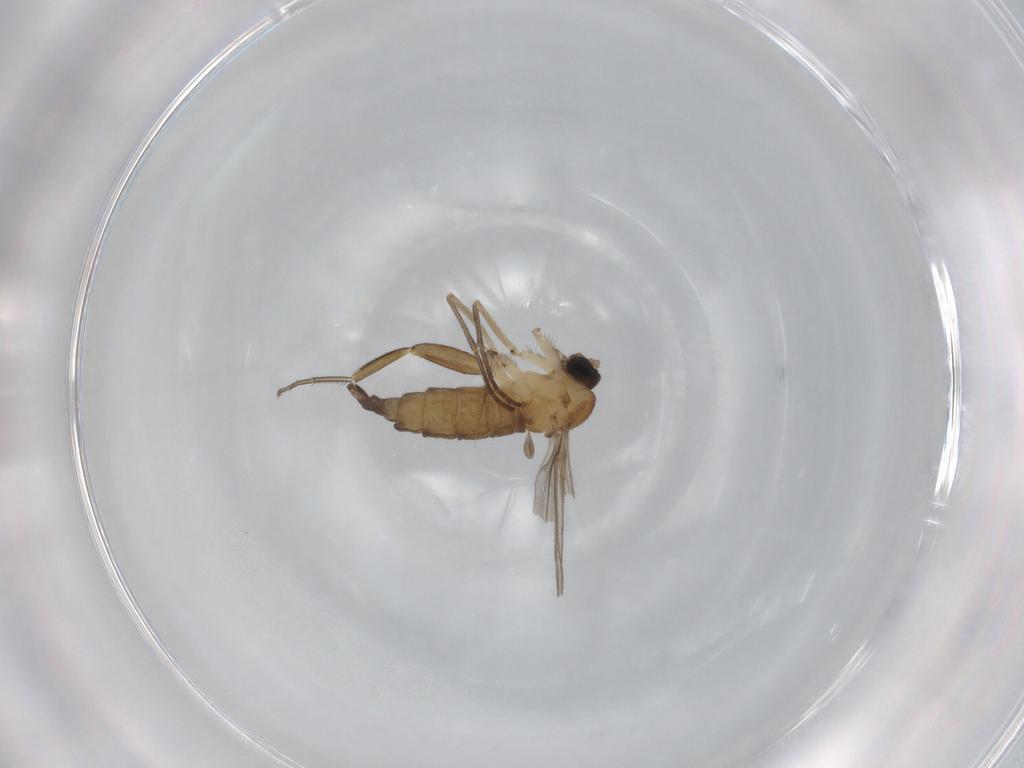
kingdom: Animalia
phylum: Arthropoda
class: Insecta
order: Diptera
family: Sciaridae
